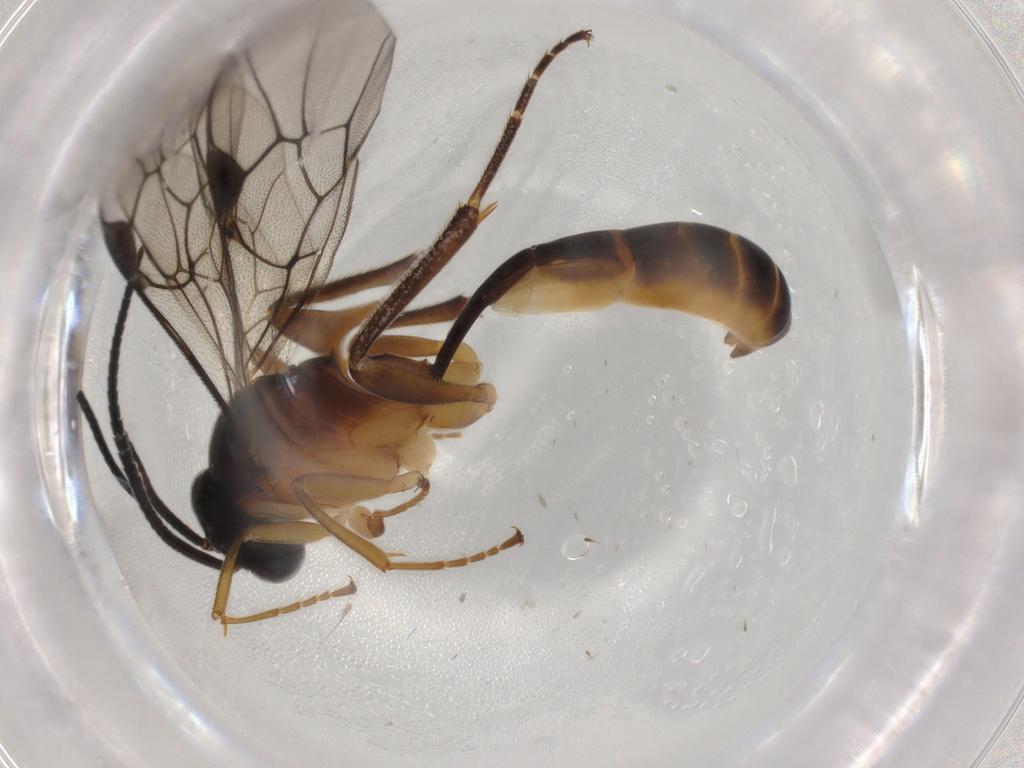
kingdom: Animalia
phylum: Arthropoda
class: Insecta
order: Hymenoptera
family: Ichneumonidae
